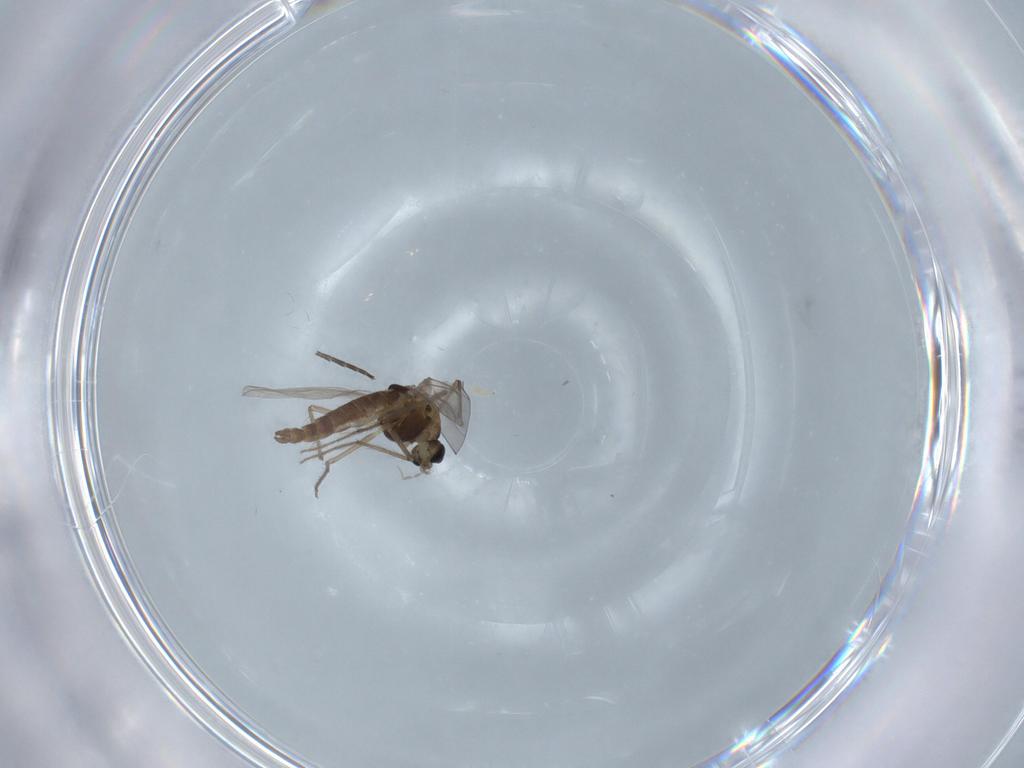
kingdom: Animalia
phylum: Arthropoda
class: Insecta
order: Diptera
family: Chironomidae
